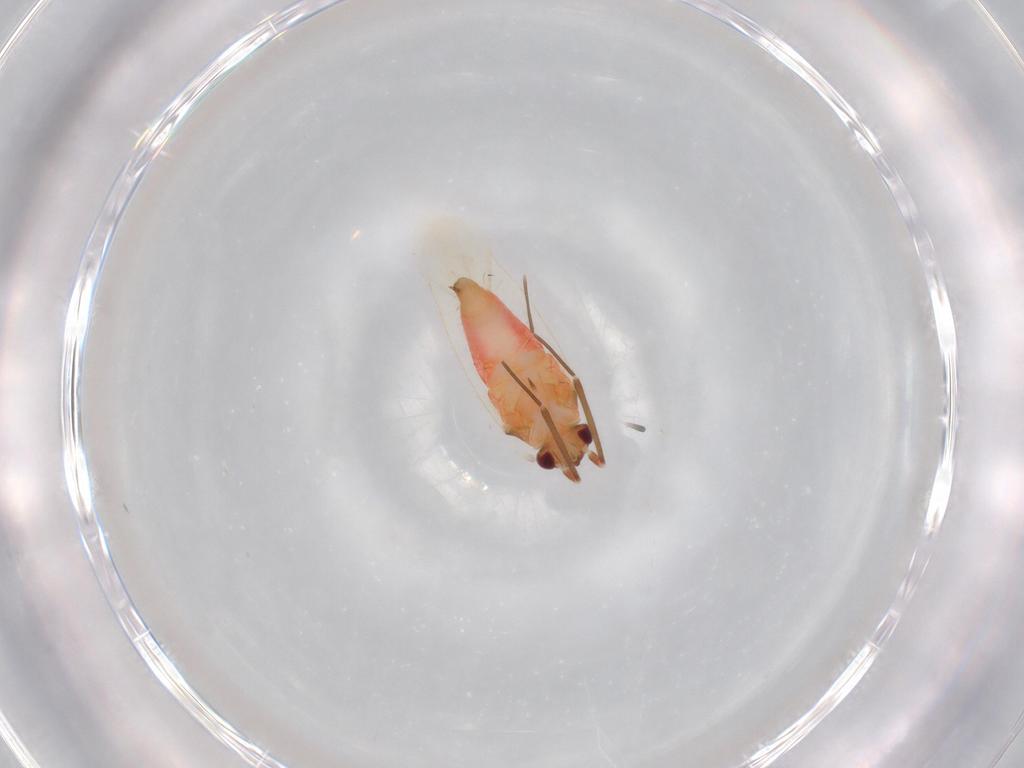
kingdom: Animalia
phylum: Arthropoda
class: Insecta
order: Hemiptera
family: Miridae
